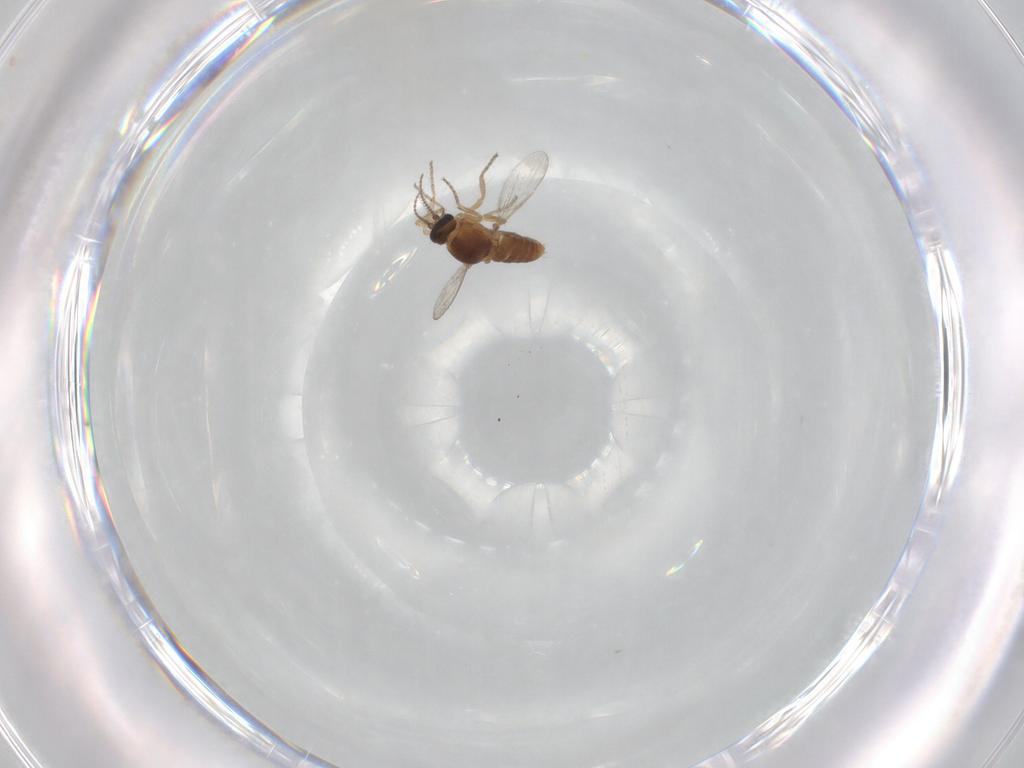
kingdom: Animalia
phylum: Arthropoda
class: Insecta
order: Diptera
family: Ceratopogonidae
